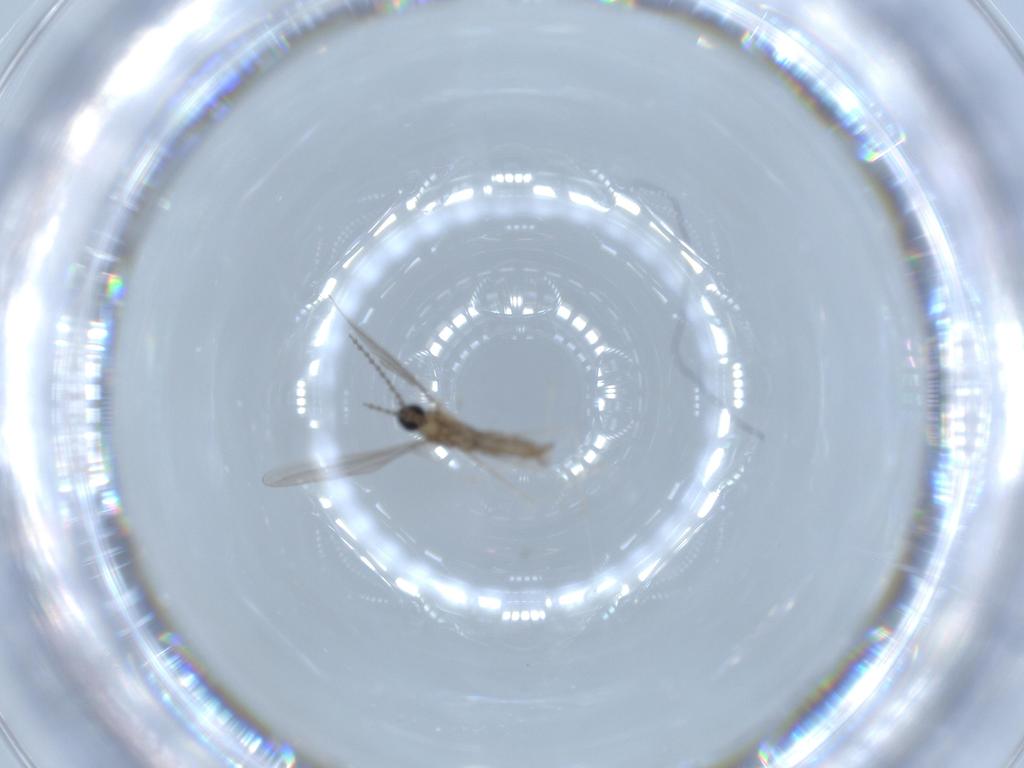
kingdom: Animalia
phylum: Arthropoda
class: Insecta
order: Diptera
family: Cecidomyiidae
